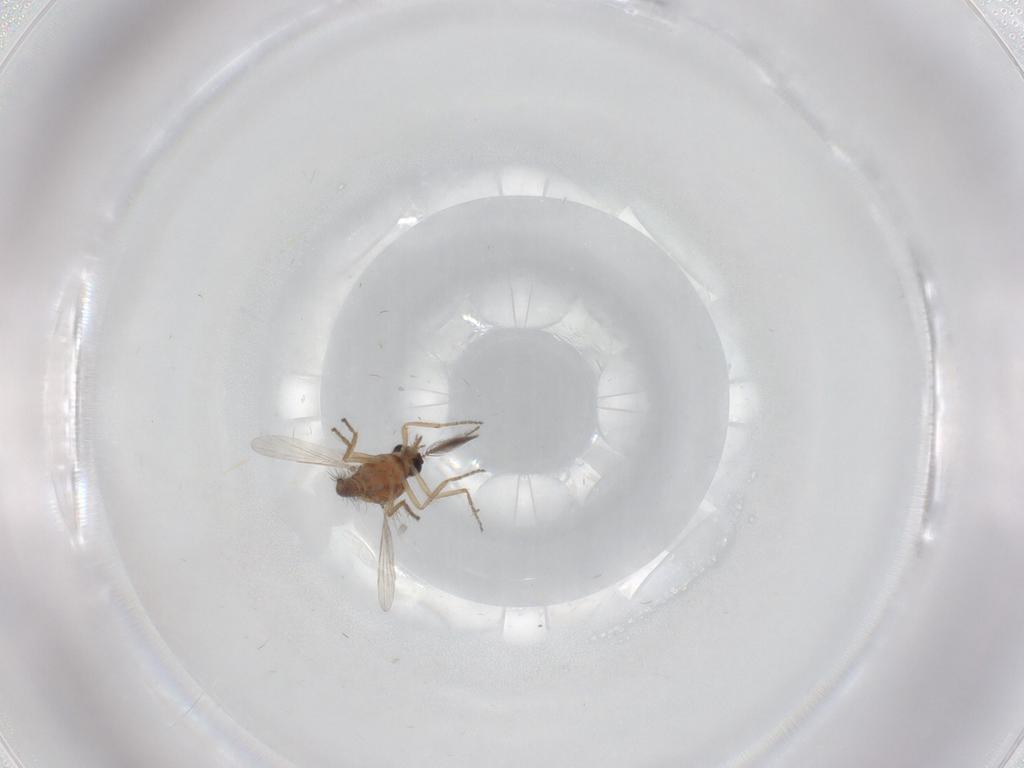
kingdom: Animalia
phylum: Arthropoda
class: Insecta
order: Diptera
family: Ceratopogonidae
